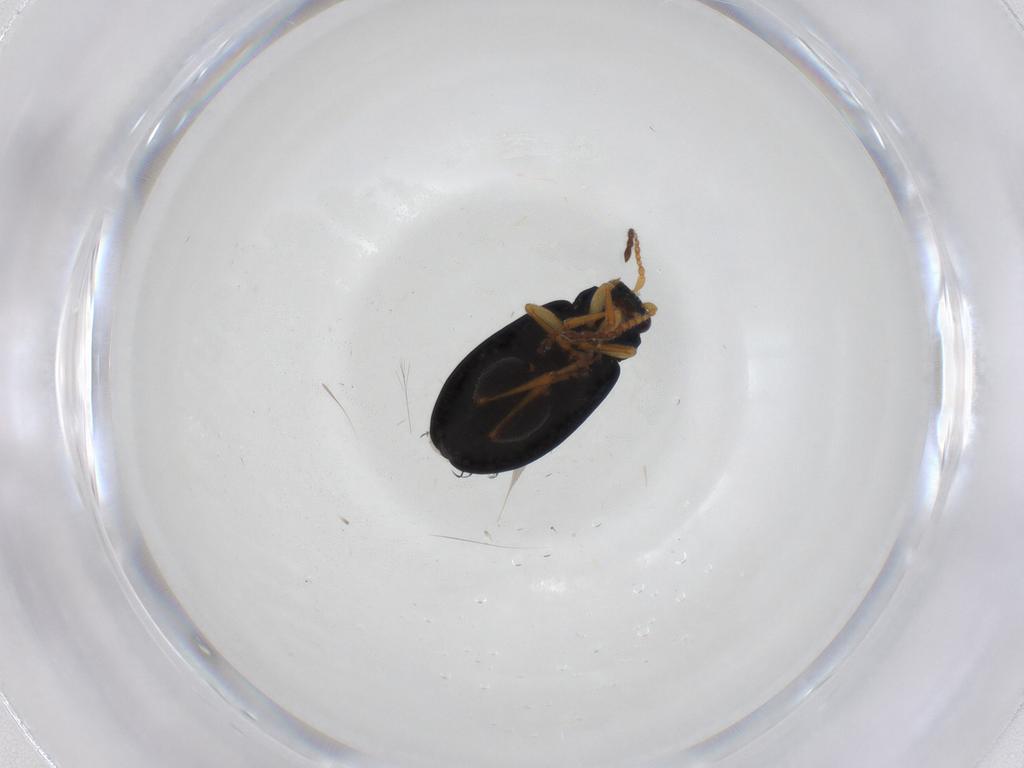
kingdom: Animalia
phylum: Arthropoda
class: Insecta
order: Coleoptera
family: Chrysomelidae
